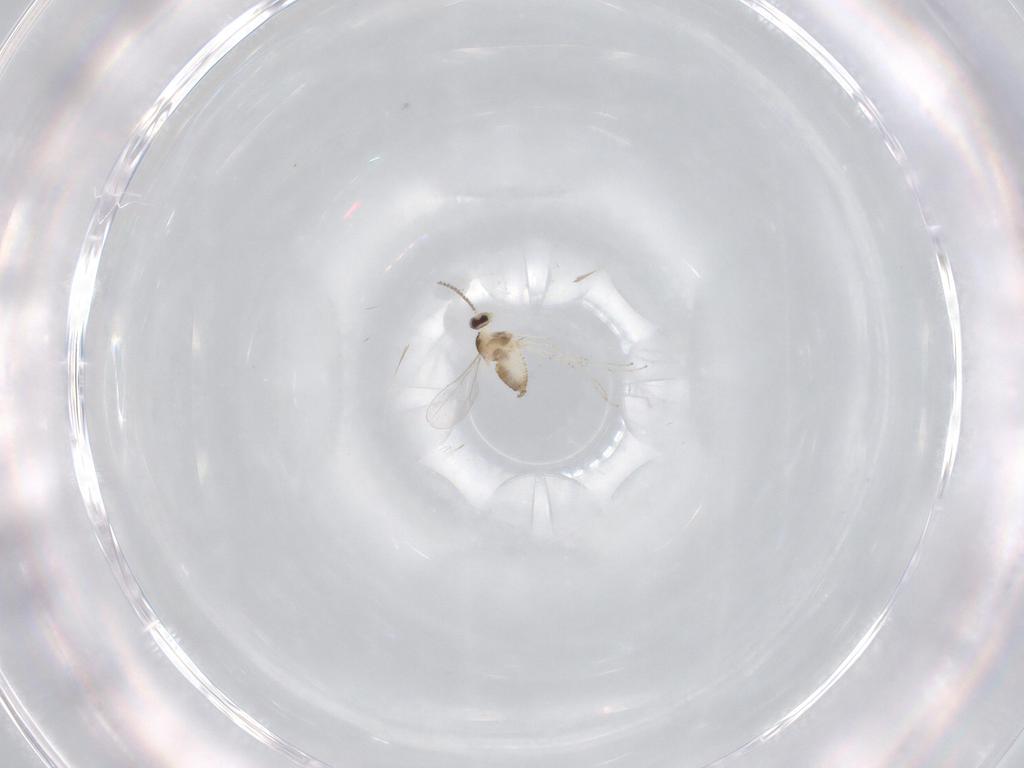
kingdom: Animalia
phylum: Arthropoda
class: Insecta
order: Diptera
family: Cecidomyiidae
